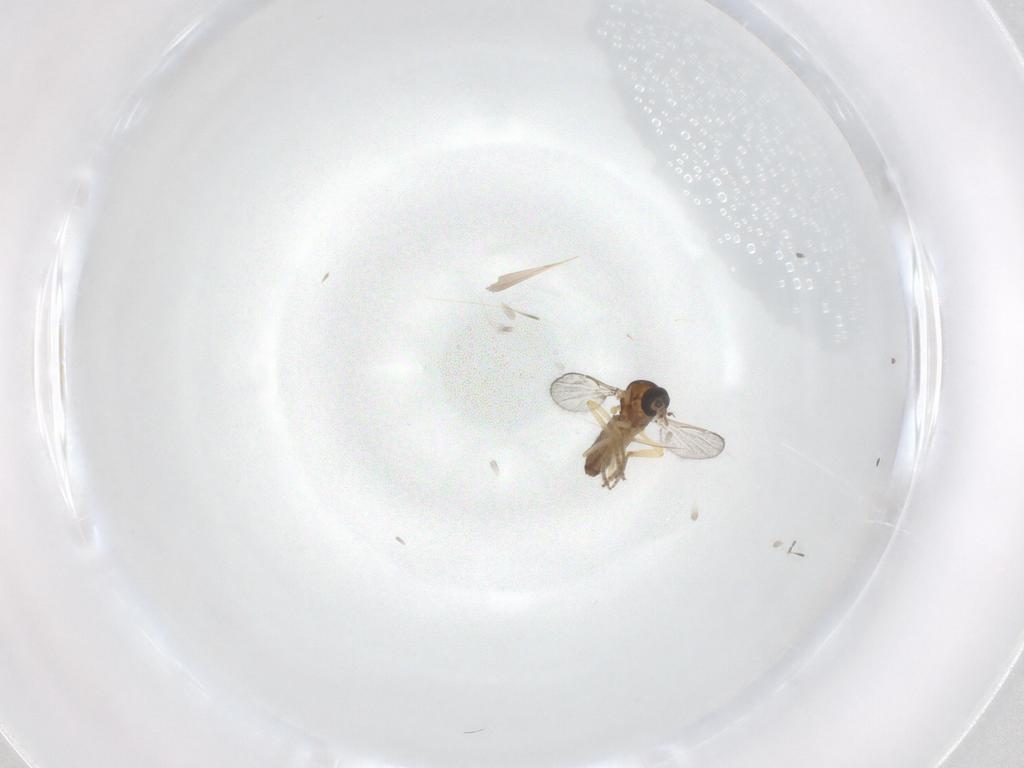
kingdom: Animalia
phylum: Arthropoda
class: Insecta
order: Diptera
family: Ceratopogonidae
